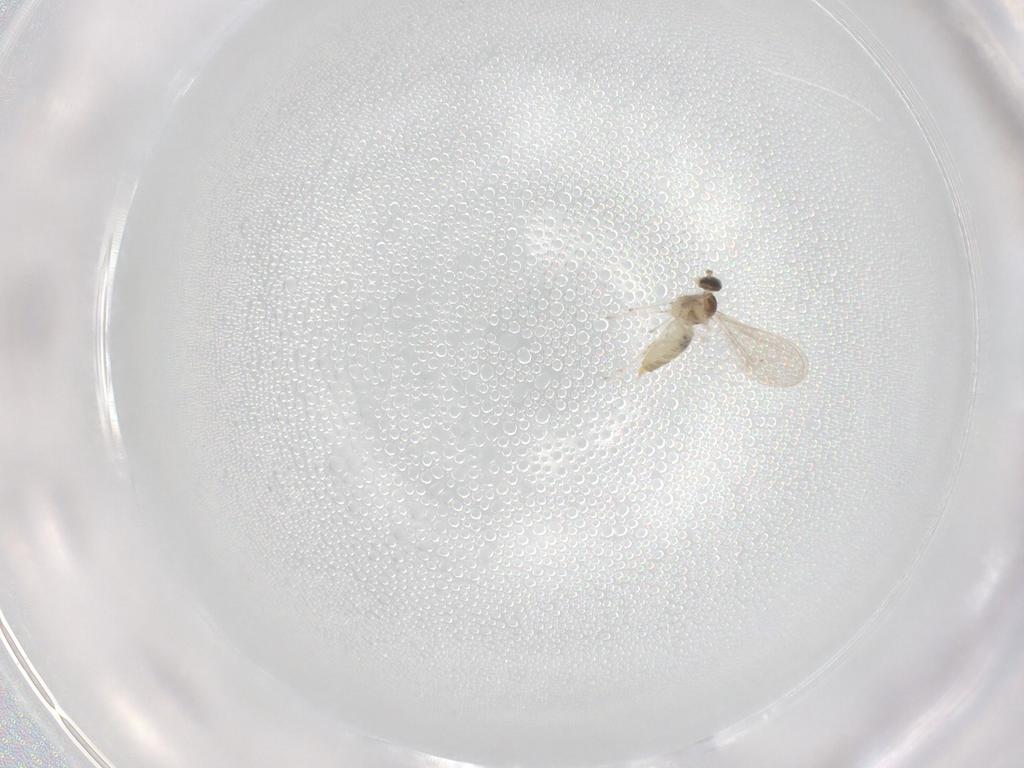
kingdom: Animalia
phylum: Arthropoda
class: Insecta
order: Diptera
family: Cecidomyiidae
